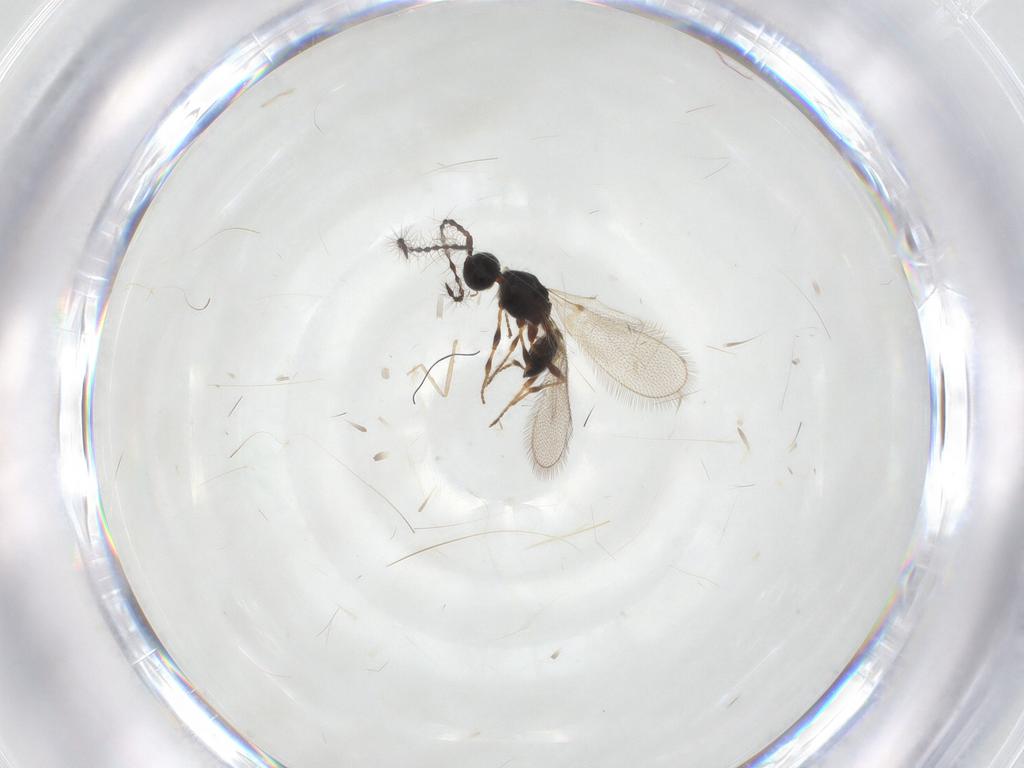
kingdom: Animalia
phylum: Arthropoda
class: Insecta
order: Hymenoptera
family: Diapriidae
